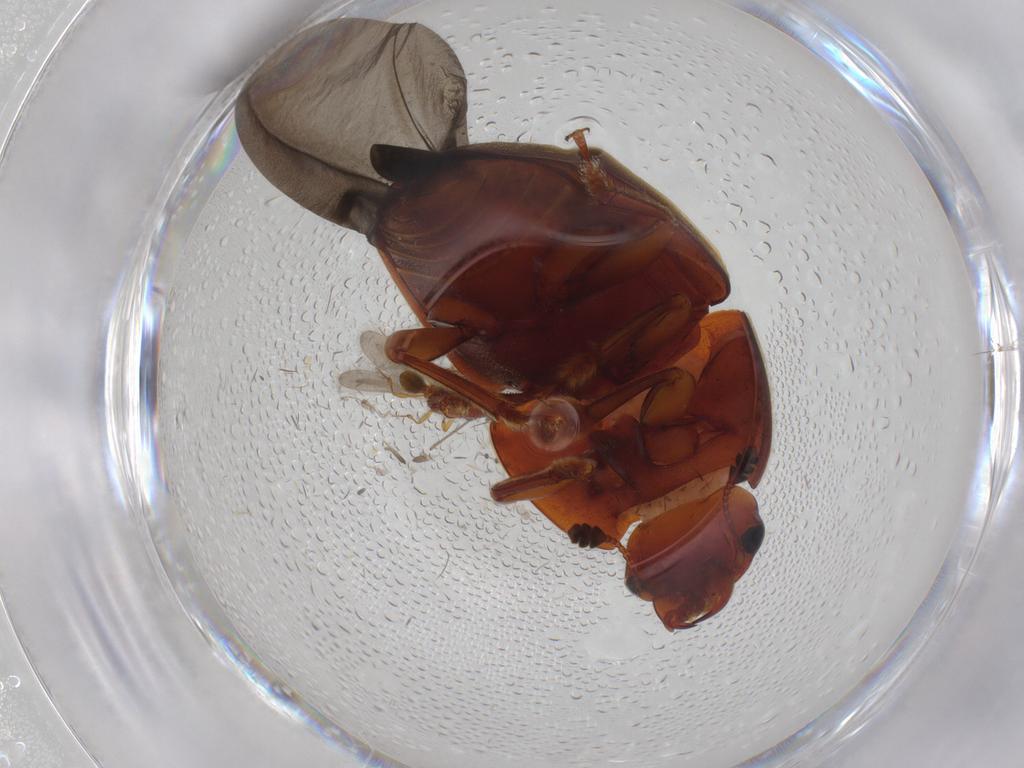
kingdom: Animalia
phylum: Arthropoda
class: Insecta
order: Coleoptera
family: Nitidulidae
